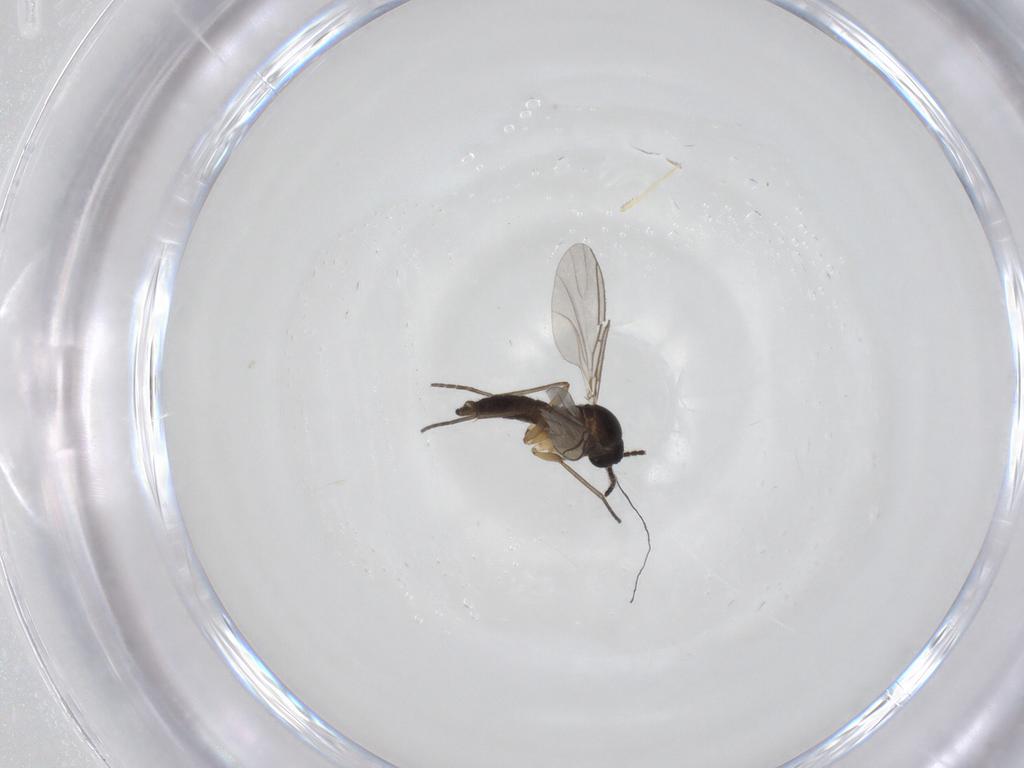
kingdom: Animalia
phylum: Arthropoda
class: Insecta
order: Diptera
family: Sciaridae
